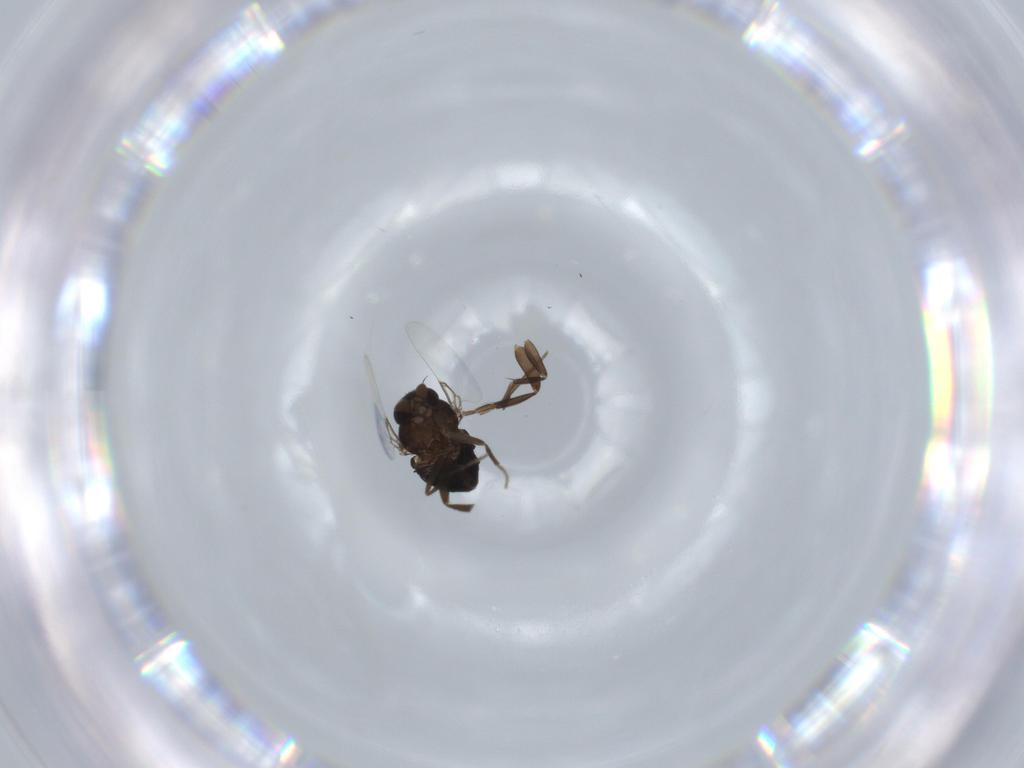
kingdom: Animalia
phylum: Arthropoda
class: Insecta
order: Diptera
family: Phoridae
